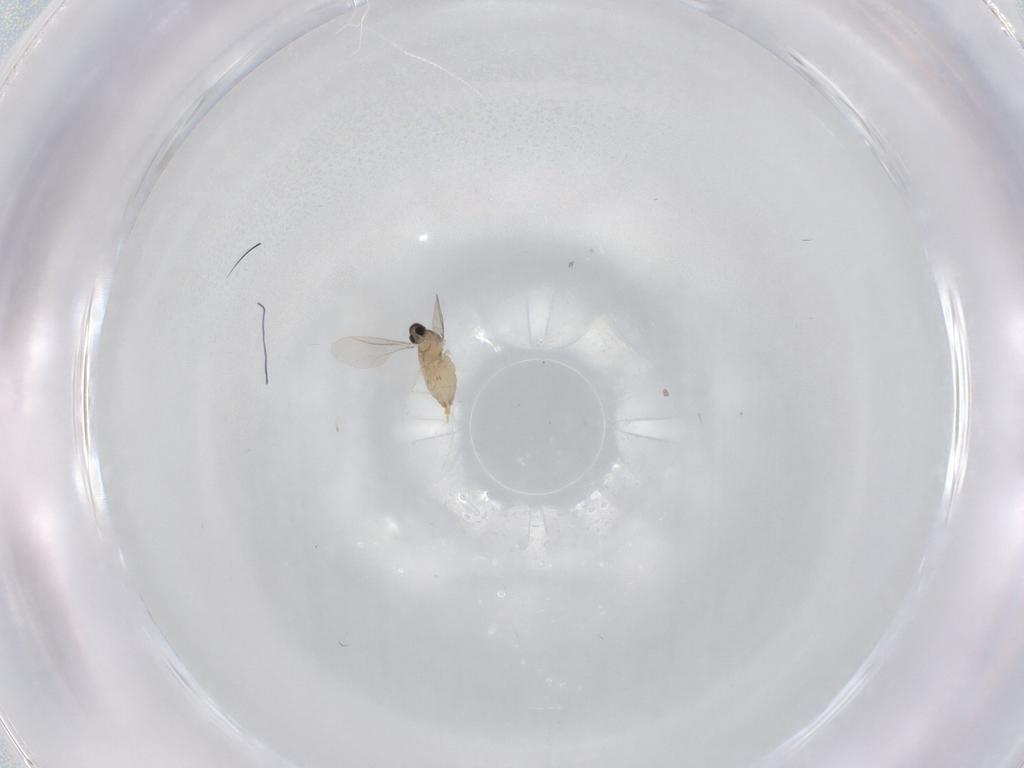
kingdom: Animalia
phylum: Arthropoda
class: Insecta
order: Diptera
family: Cecidomyiidae
